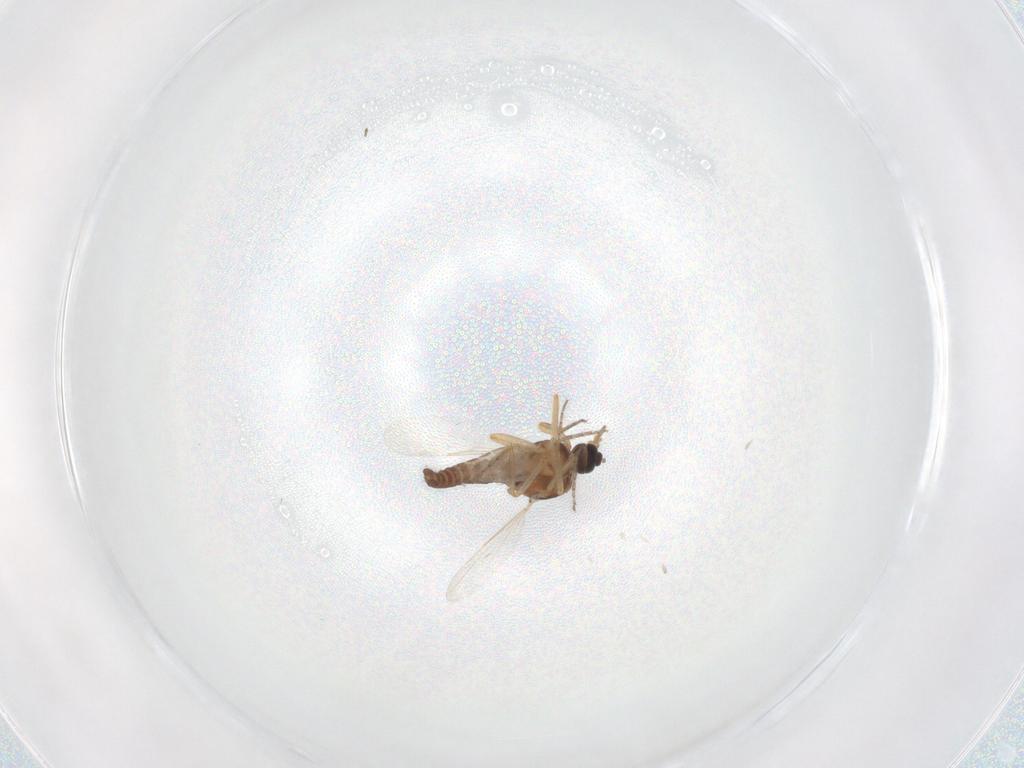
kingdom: Animalia
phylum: Arthropoda
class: Insecta
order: Diptera
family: Ceratopogonidae
